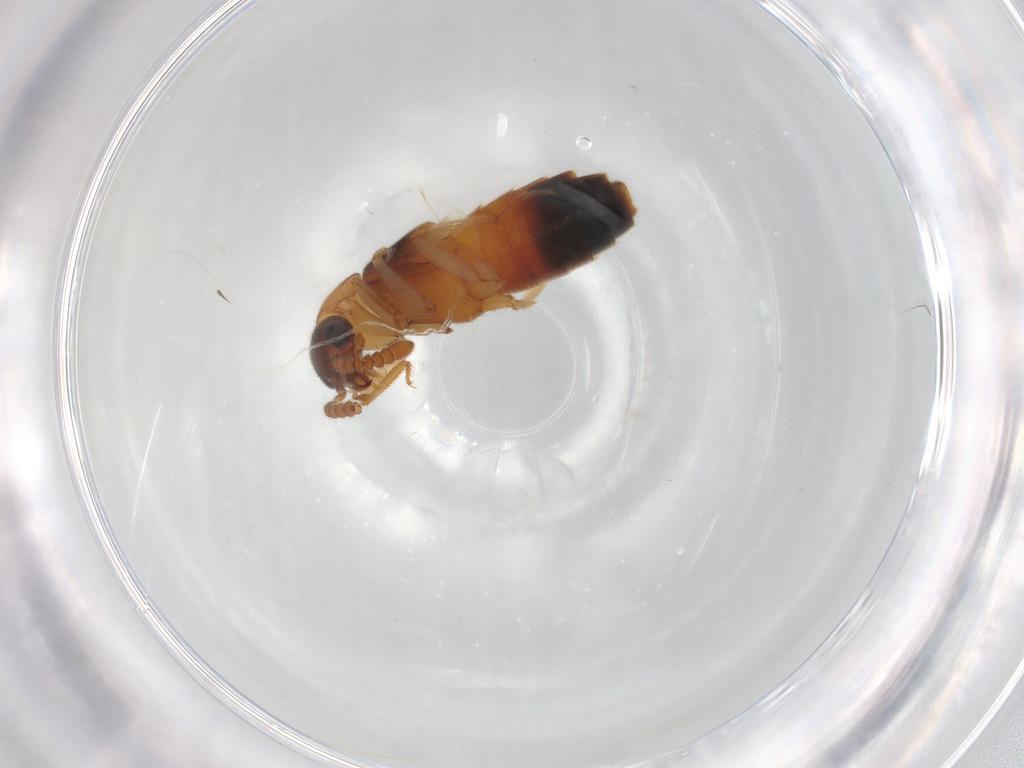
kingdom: Animalia
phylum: Arthropoda
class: Insecta
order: Coleoptera
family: Staphylinidae
